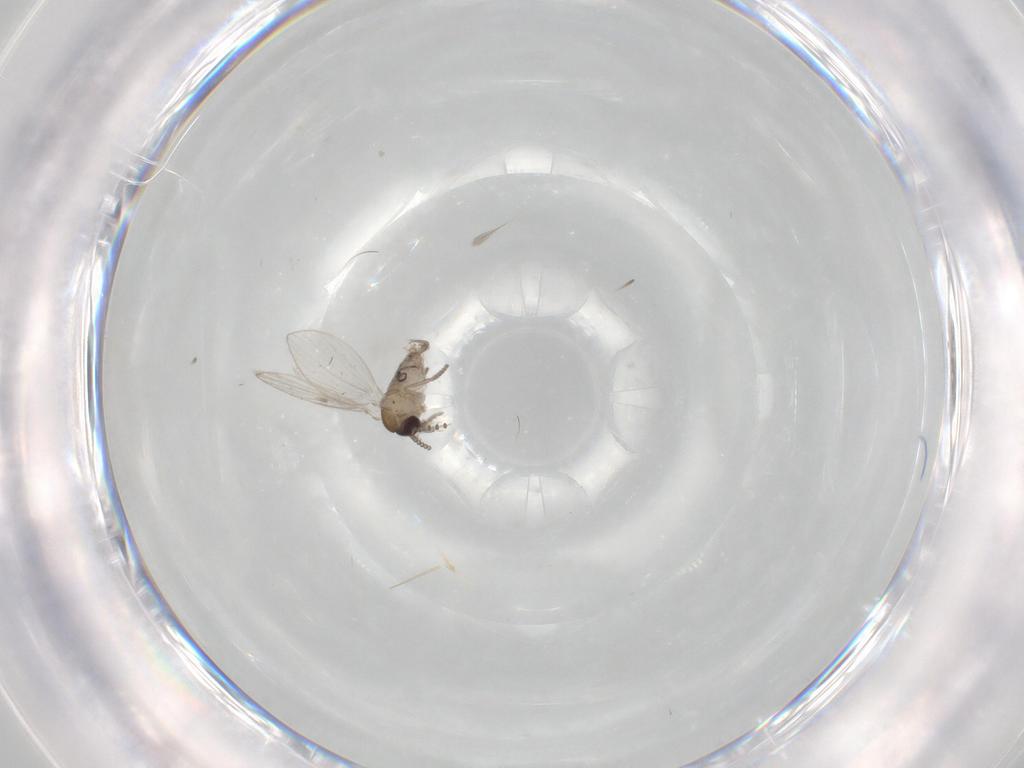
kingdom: Animalia
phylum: Arthropoda
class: Insecta
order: Diptera
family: Psychodidae
